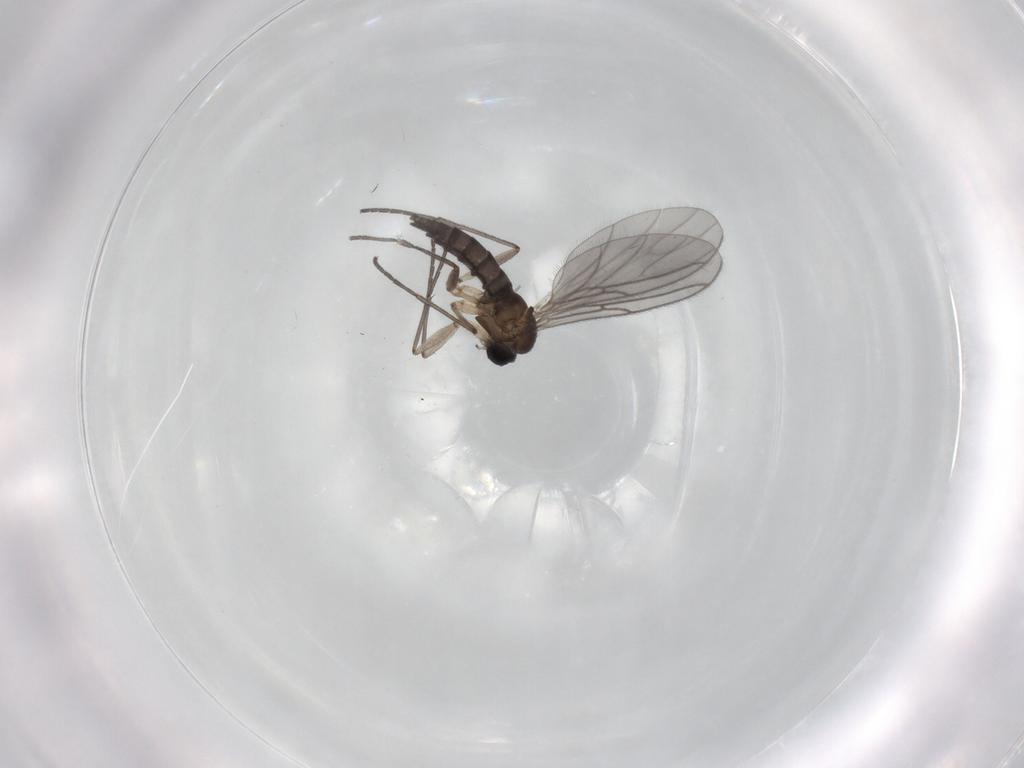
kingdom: Animalia
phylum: Arthropoda
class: Insecta
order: Diptera
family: Sciaridae
